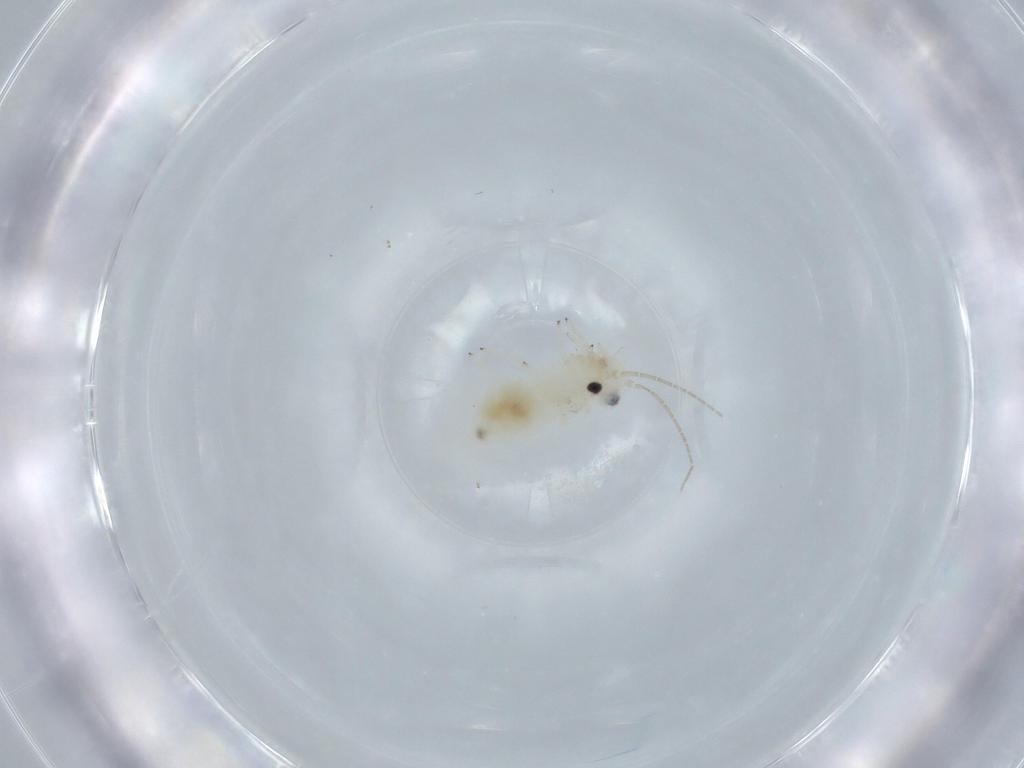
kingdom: Animalia
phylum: Arthropoda
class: Insecta
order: Psocodea
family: Caeciliusidae
